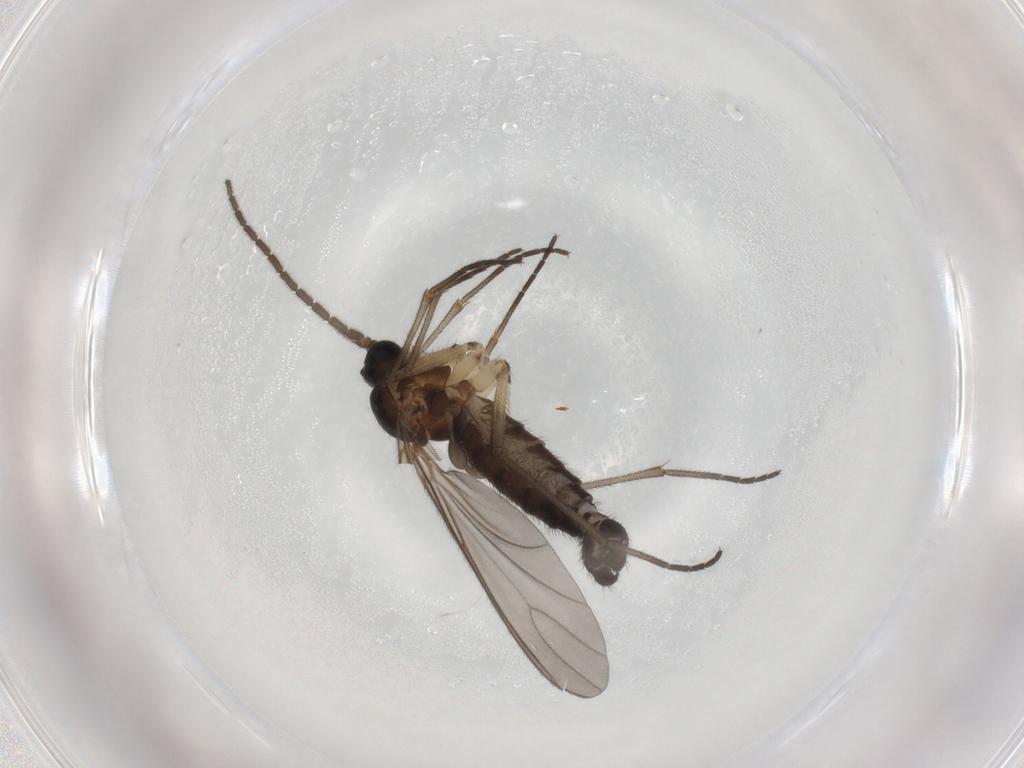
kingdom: Animalia
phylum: Arthropoda
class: Insecta
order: Diptera
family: Sciaridae
